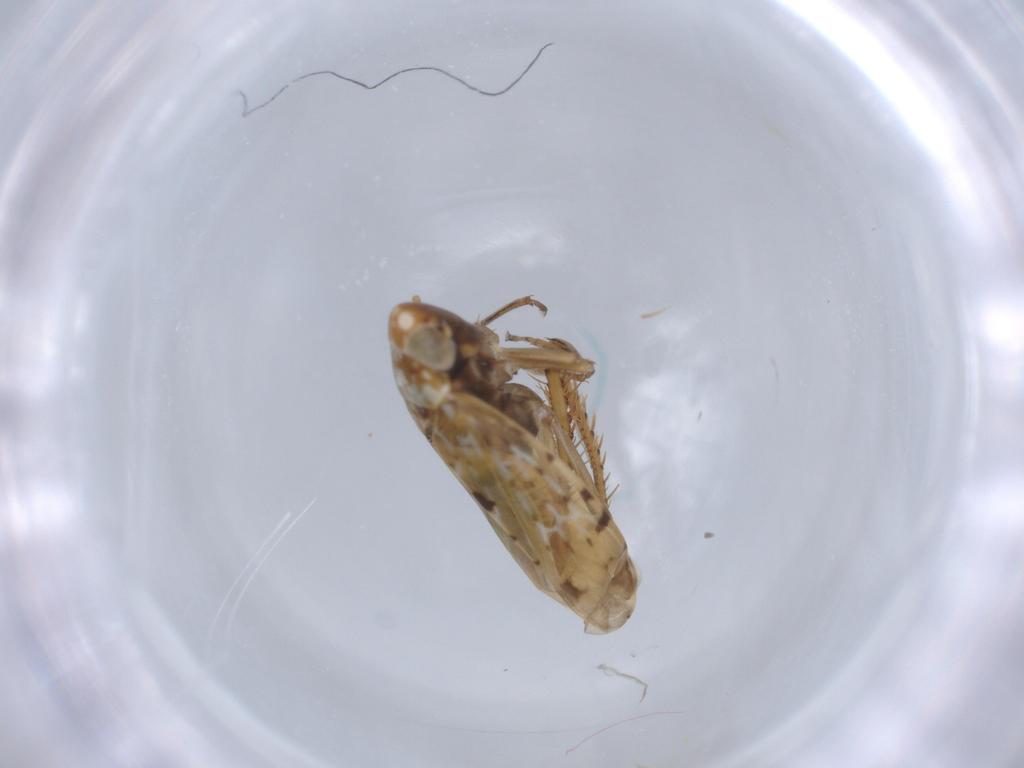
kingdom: Animalia
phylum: Arthropoda
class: Insecta
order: Hemiptera
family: Cicadellidae
